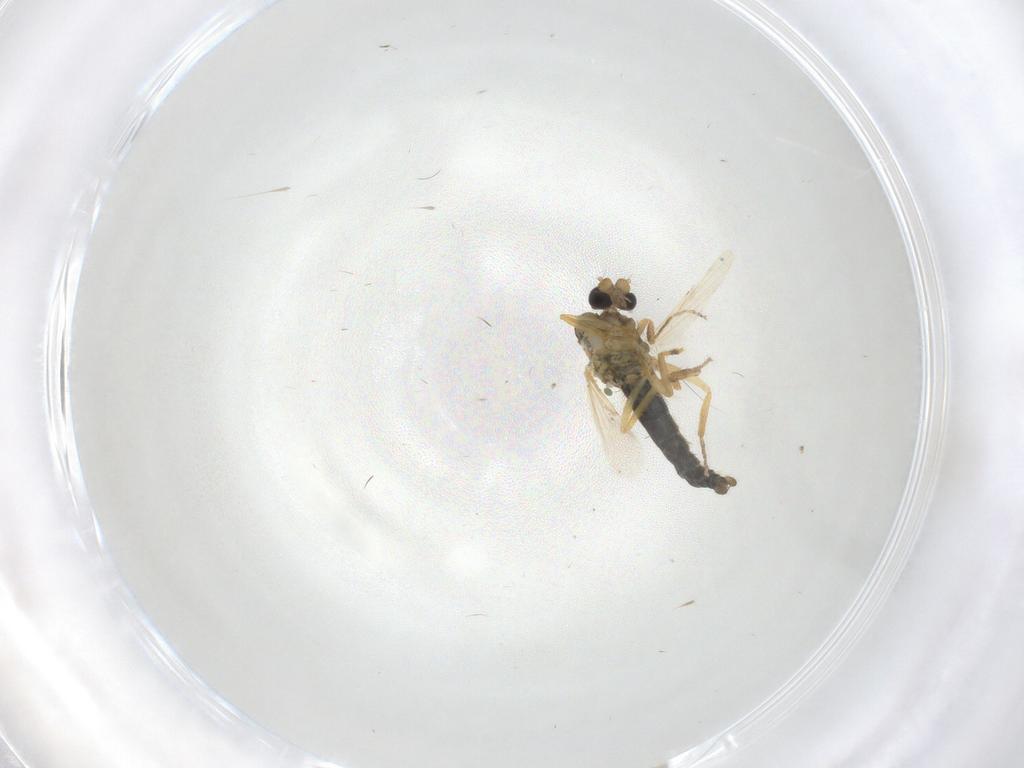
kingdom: Animalia
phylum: Arthropoda
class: Insecta
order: Diptera
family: Ceratopogonidae
